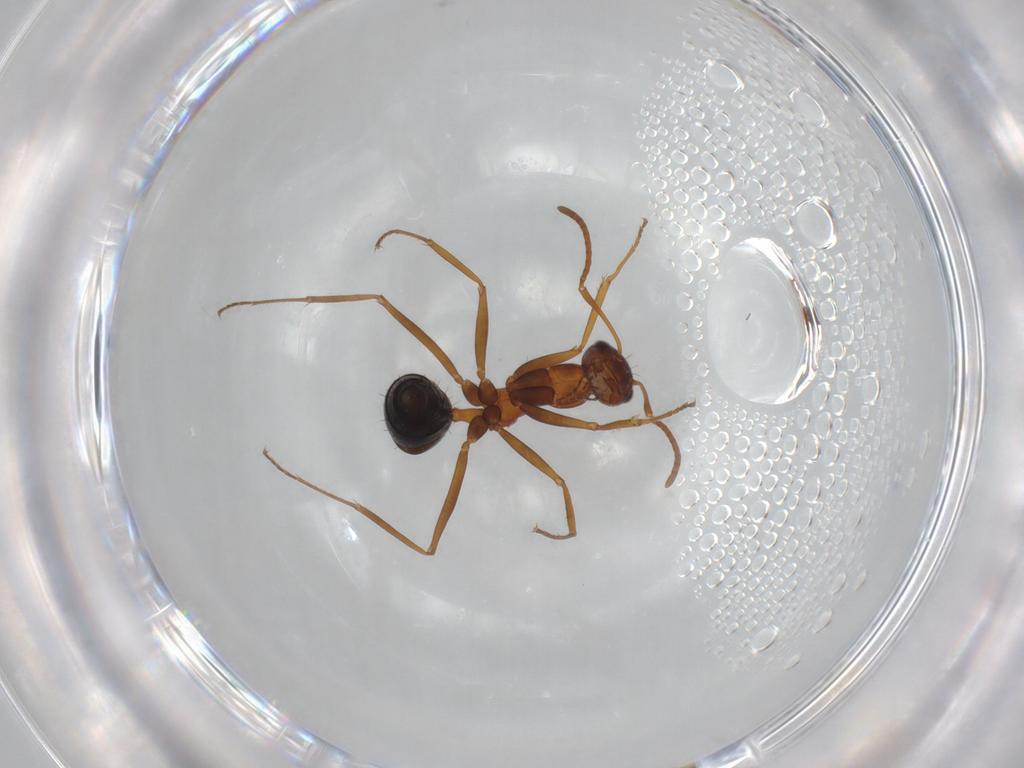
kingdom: Animalia
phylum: Arthropoda
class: Insecta
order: Hymenoptera
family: Formicidae
